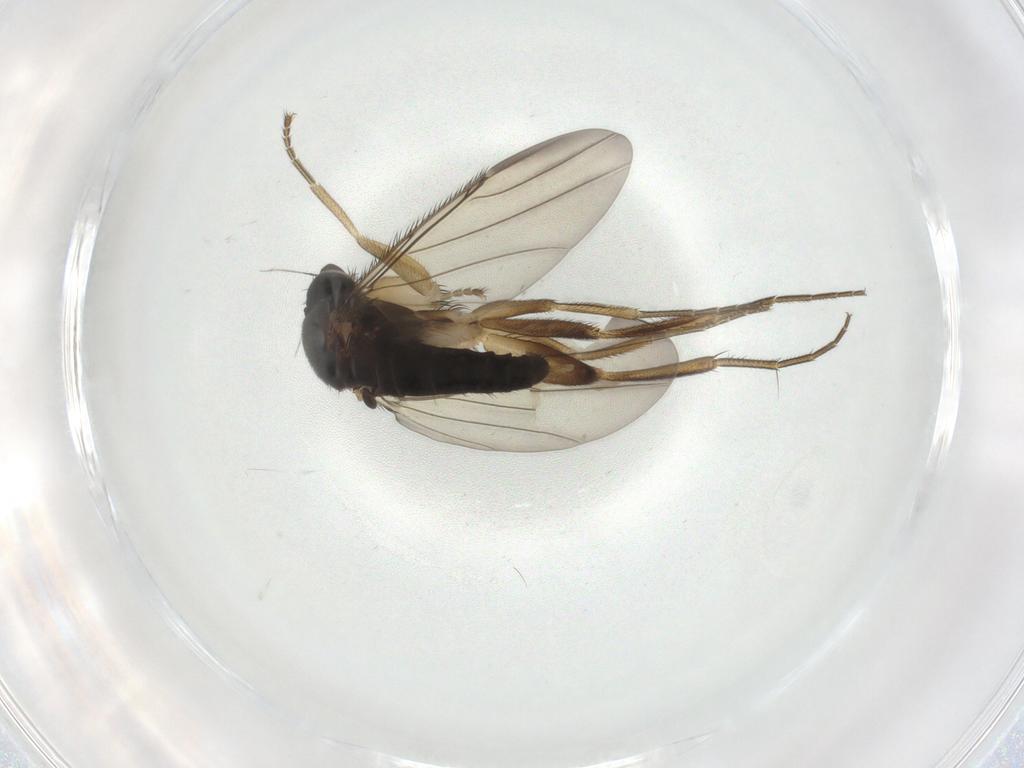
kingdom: Animalia
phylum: Arthropoda
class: Insecta
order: Diptera
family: Phoridae
